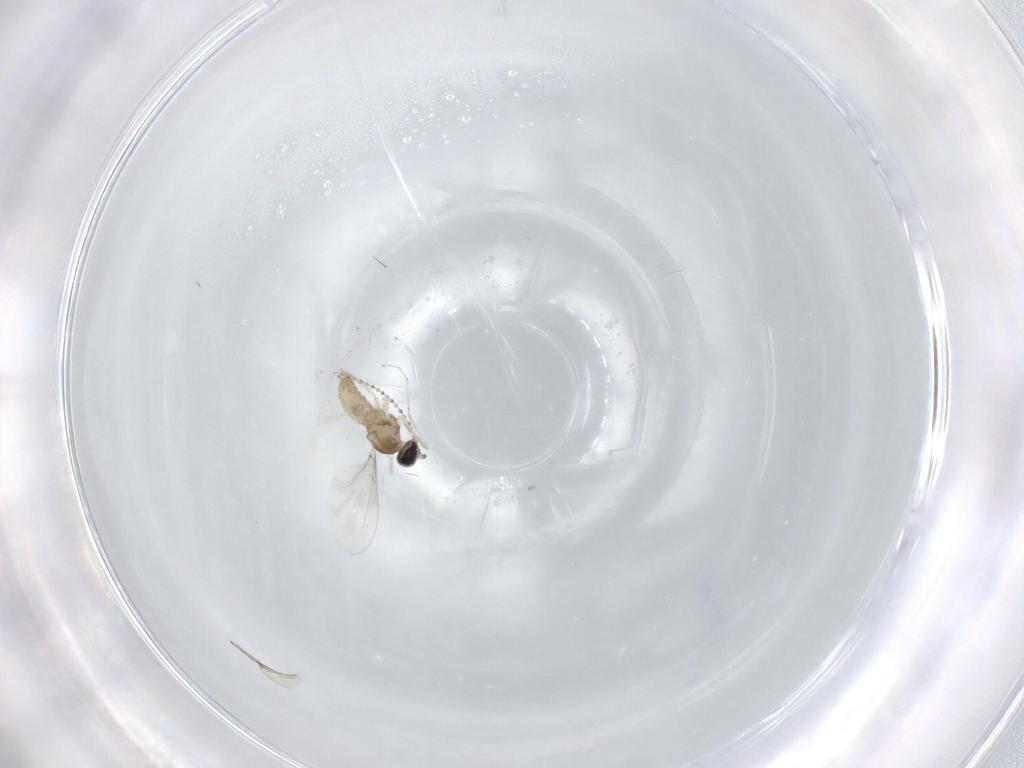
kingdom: Animalia
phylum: Arthropoda
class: Insecta
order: Diptera
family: Cecidomyiidae
